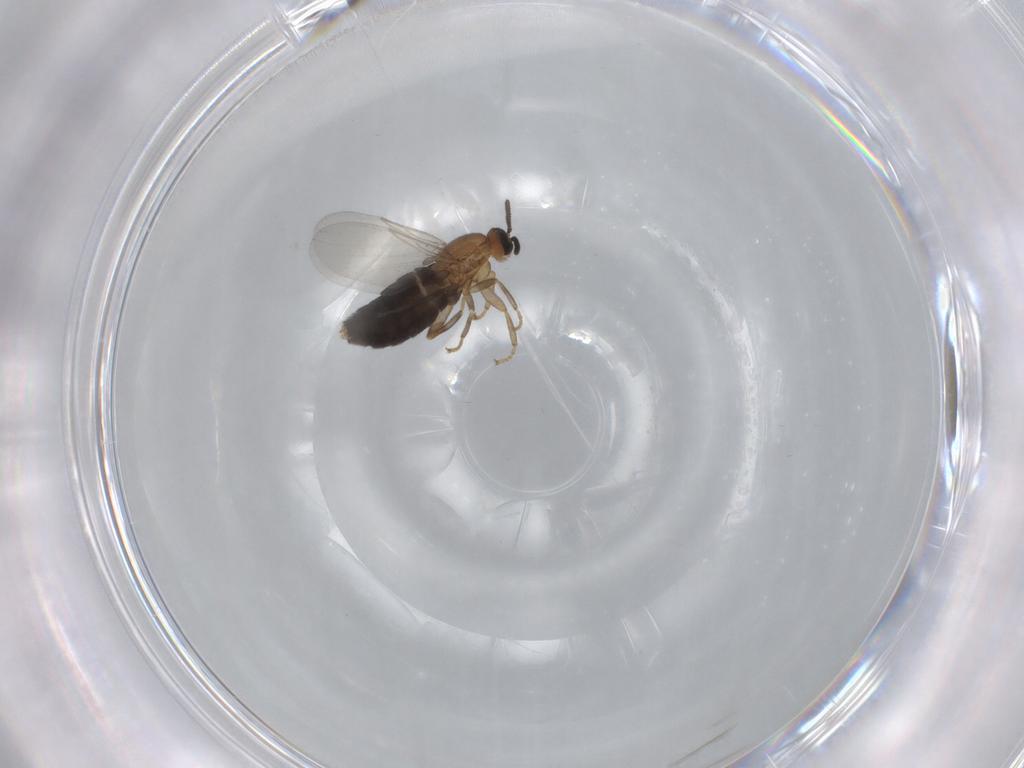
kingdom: Animalia
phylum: Arthropoda
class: Insecta
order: Diptera
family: Scatopsidae
